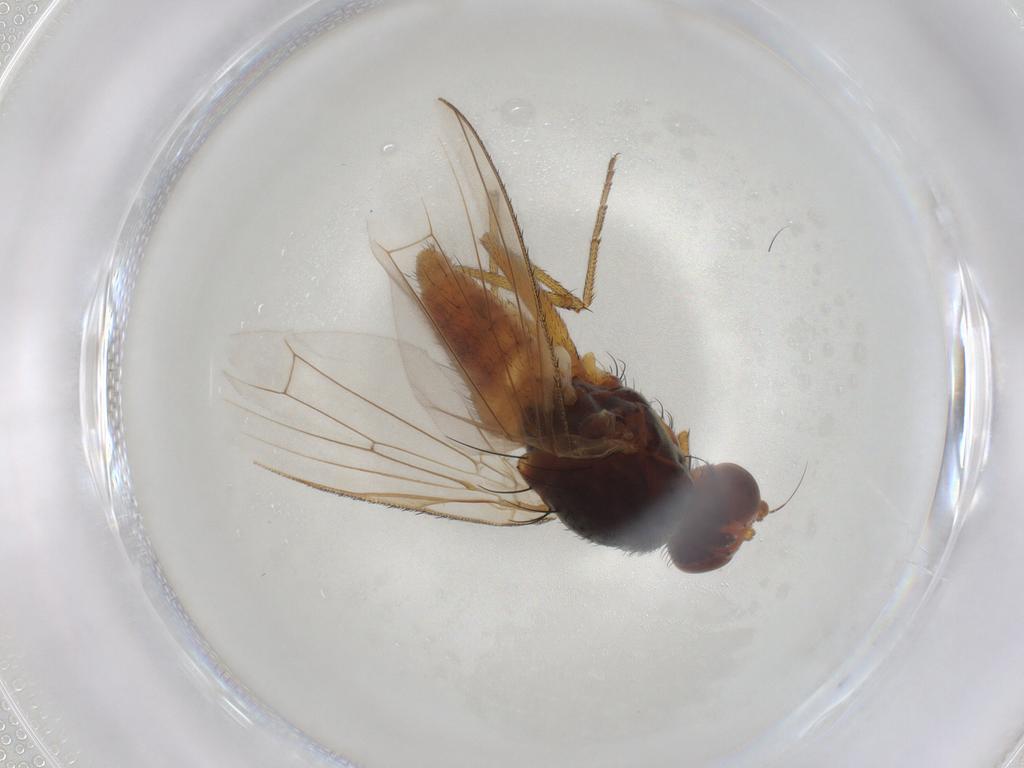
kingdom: Animalia
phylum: Arthropoda
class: Insecta
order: Diptera
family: Heleomyzidae
